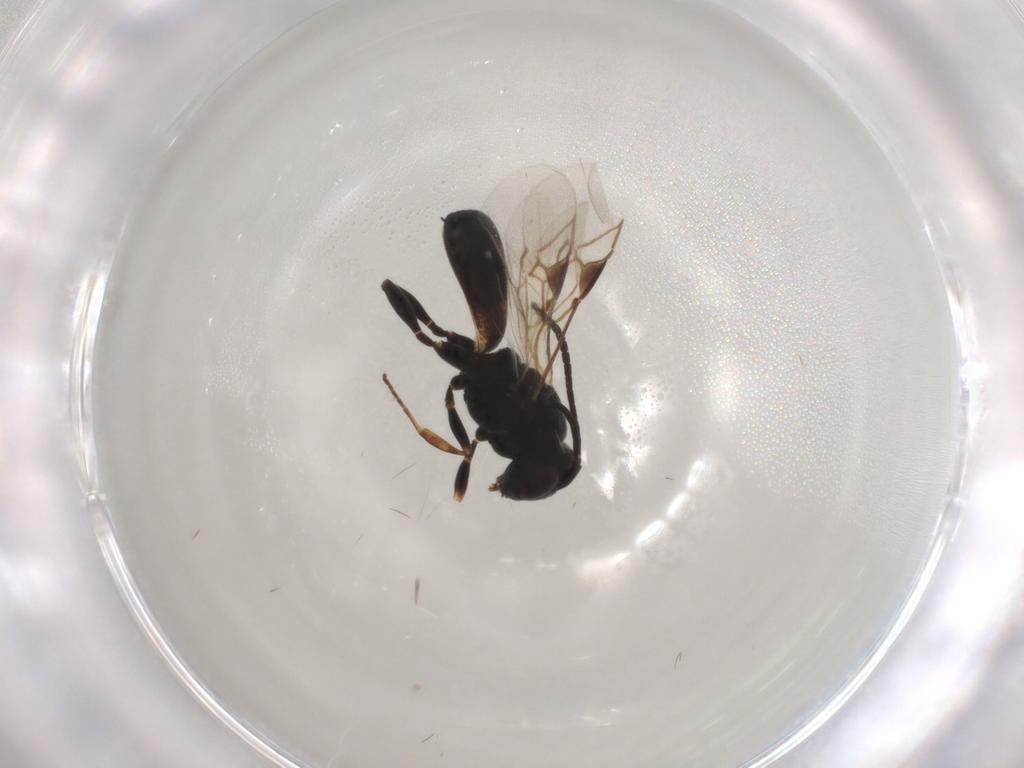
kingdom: Animalia
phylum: Arthropoda
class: Insecta
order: Hymenoptera
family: Braconidae
